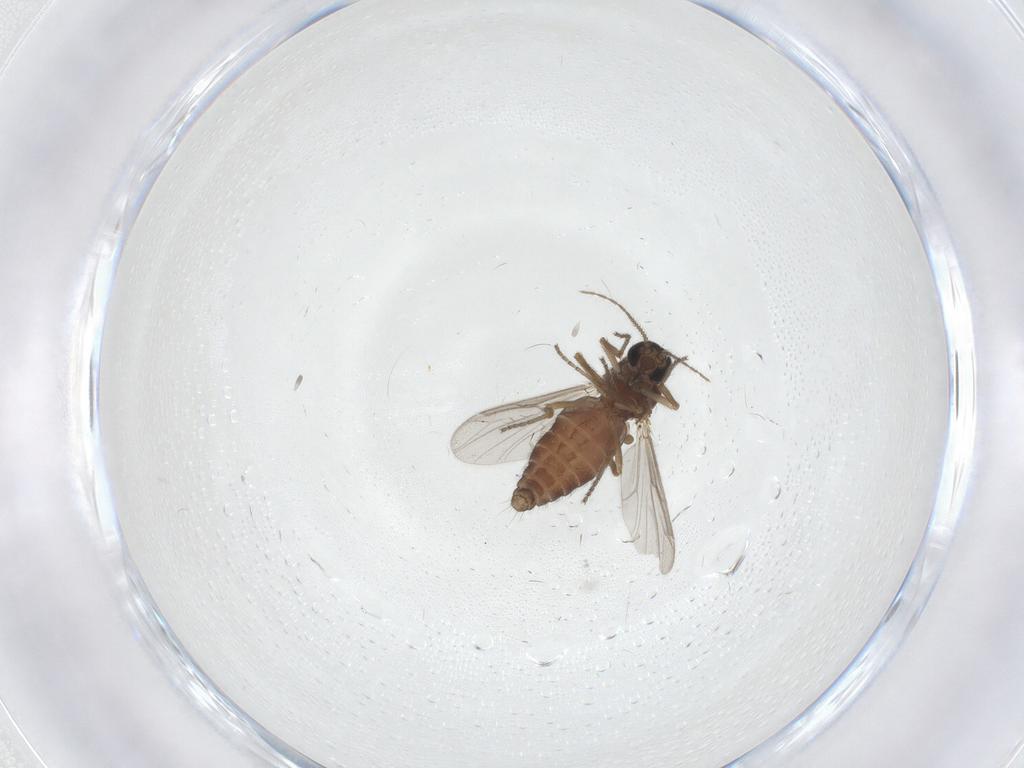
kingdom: Animalia
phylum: Arthropoda
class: Insecta
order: Diptera
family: Ceratopogonidae
